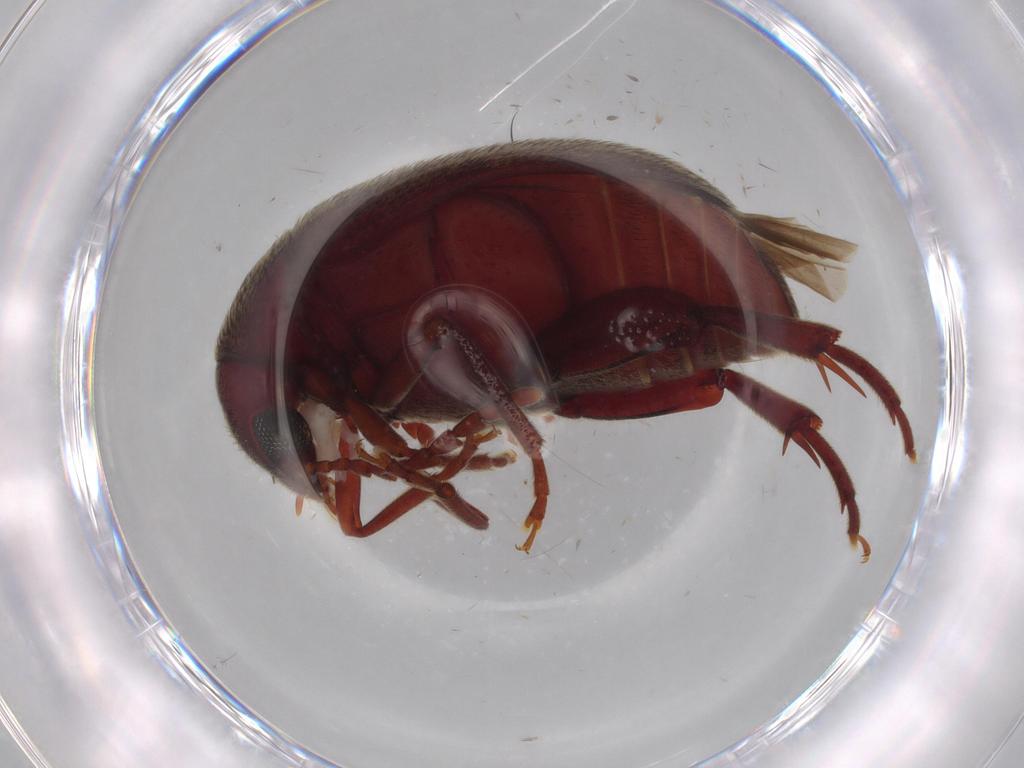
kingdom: Animalia
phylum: Arthropoda
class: Insecta
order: Coleoptera
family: Chrysomelidae
